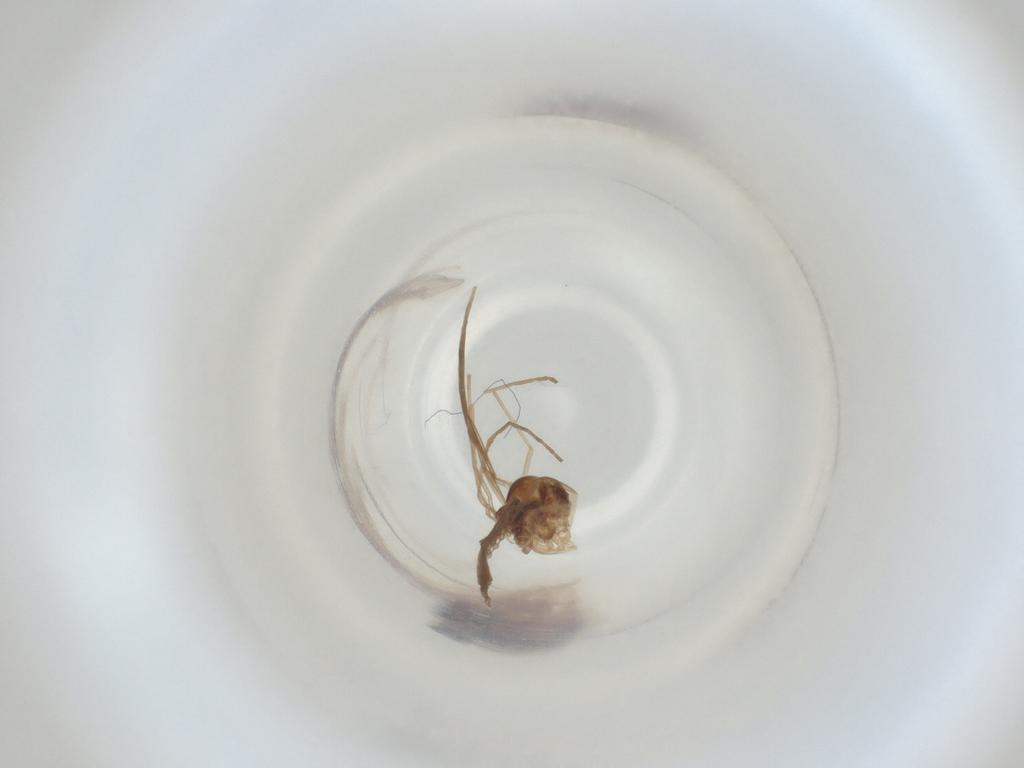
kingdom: Animalia
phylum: Arthropoda
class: Insecta
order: Diptera
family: Cecidomyiidae
